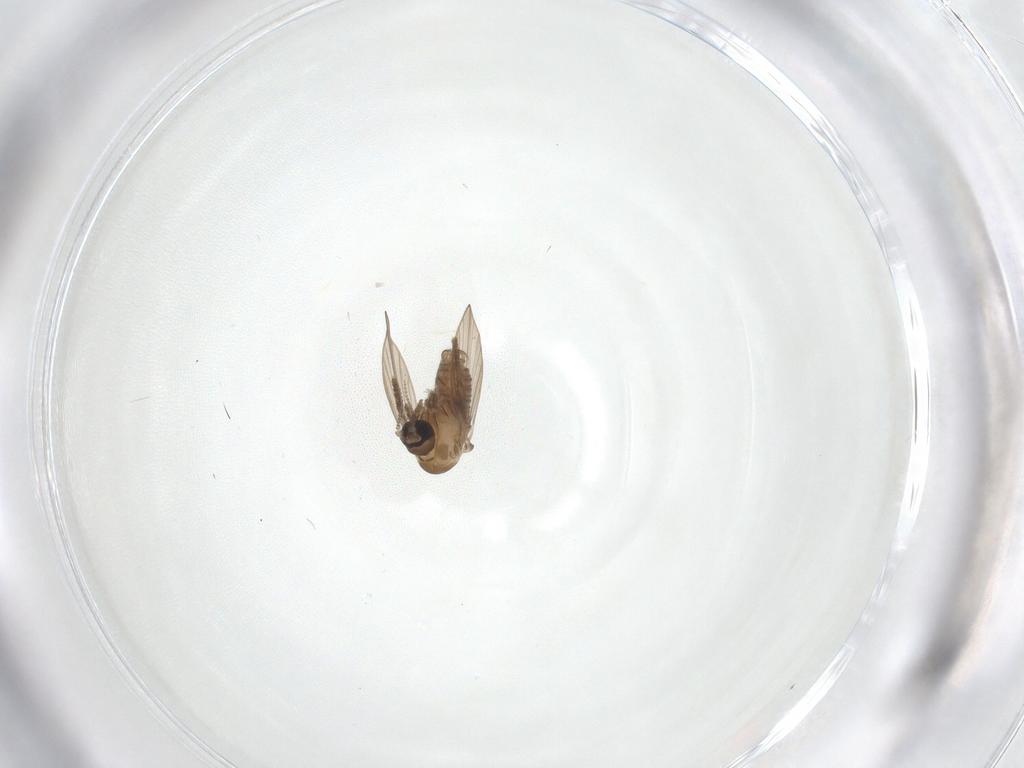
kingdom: Animalia
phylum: Arthropoda
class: Insecta
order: Diptera
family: Psychodidae
